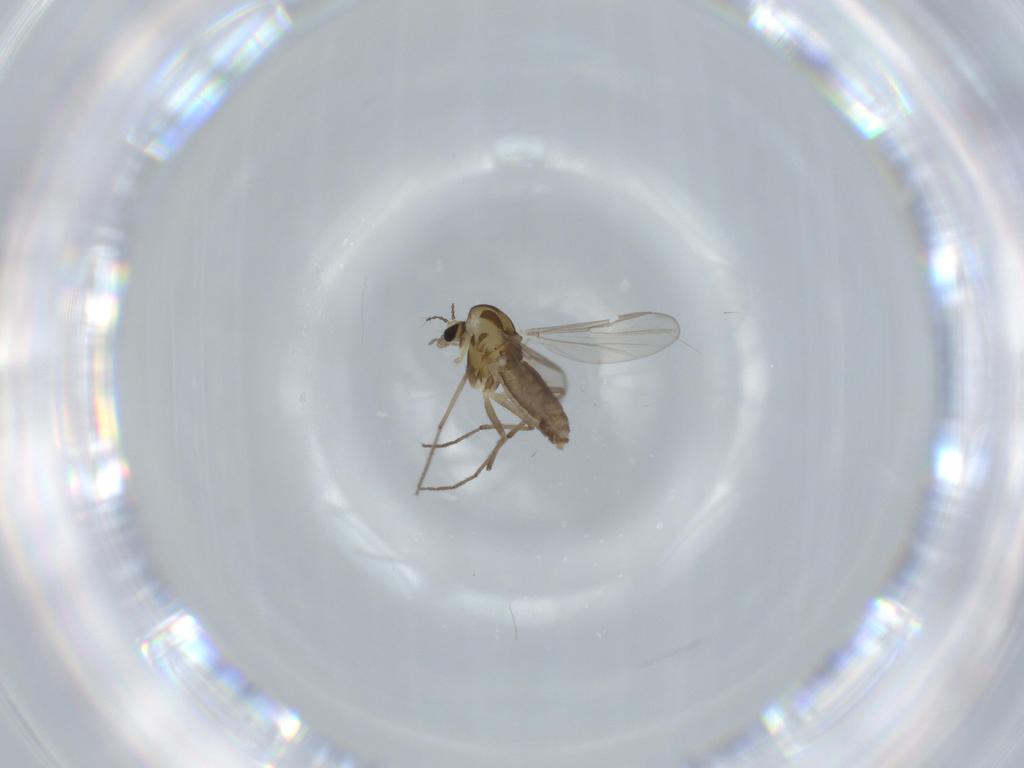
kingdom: Animalia
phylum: Arthropoda
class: Insecta
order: Diptera
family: Chironomidae
